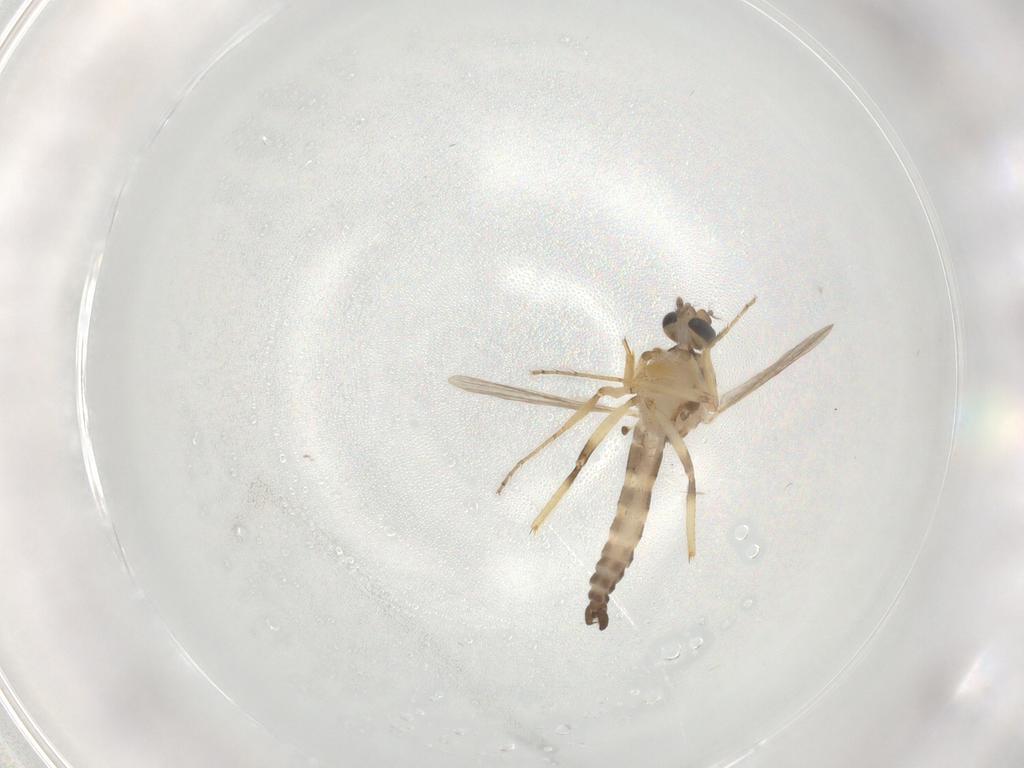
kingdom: Animalia
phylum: Arthropoda
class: Insecta
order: Diptera
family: Ceratopogonidae
